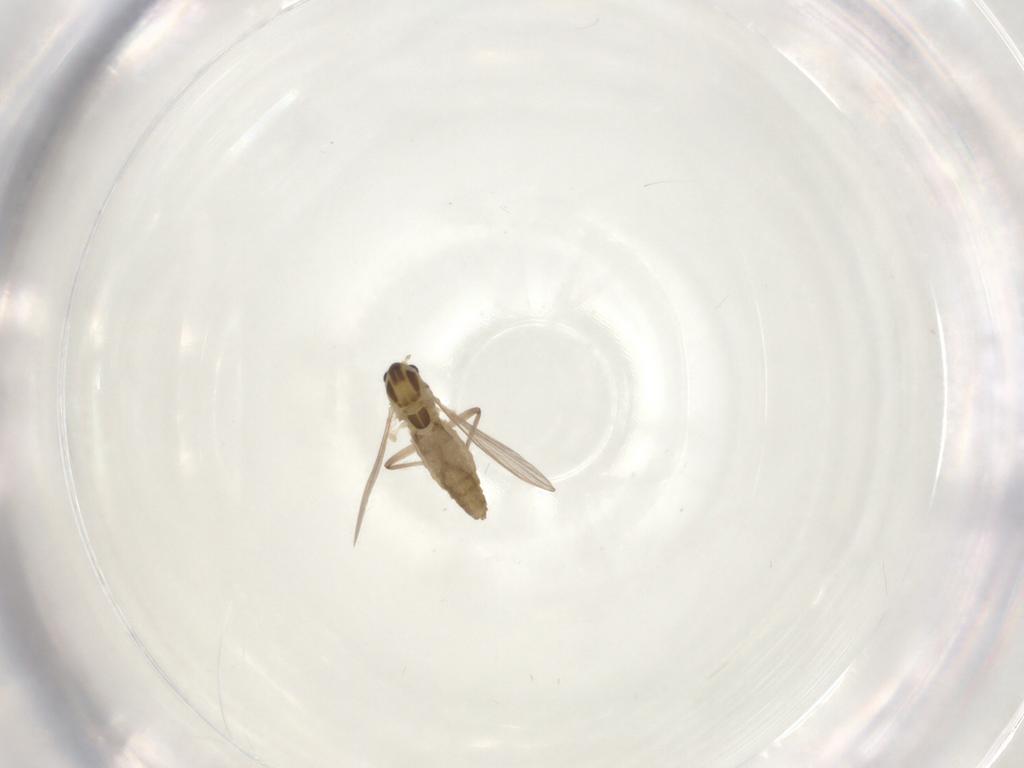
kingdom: Animalia
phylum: Arthropoda
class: Insecta
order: Diptera
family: Chironomidae
